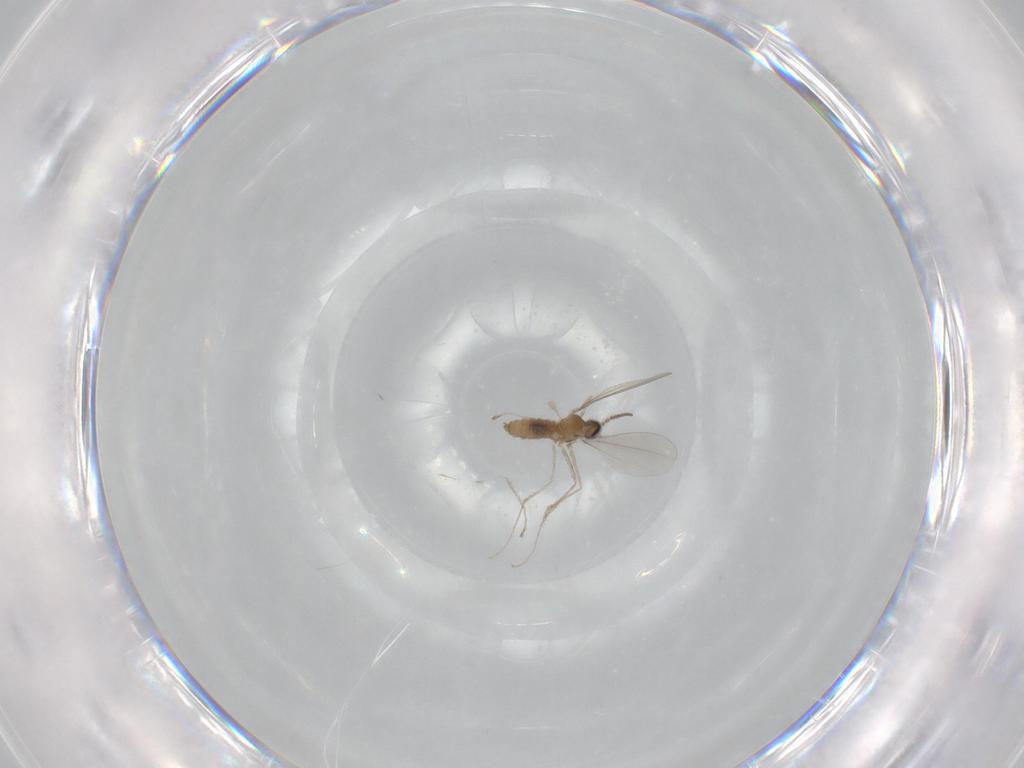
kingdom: Animalia
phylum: Arthropoda
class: Insecta
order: Diptera
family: Cecidomyiidae
